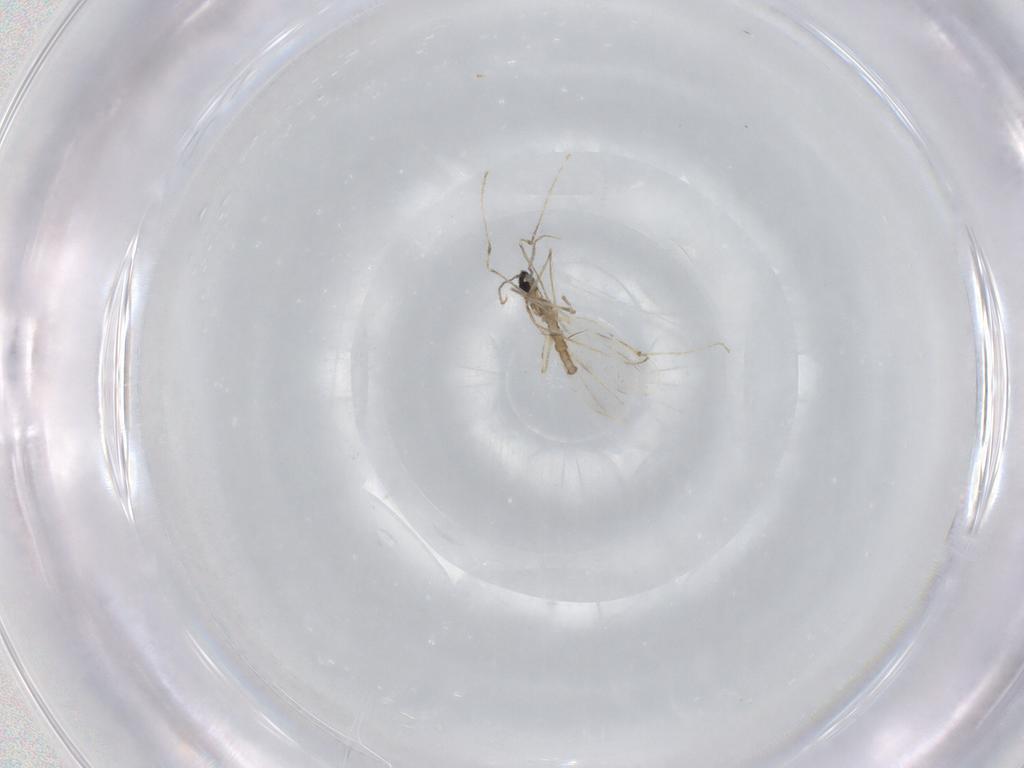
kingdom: Animalia
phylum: Arthropoda
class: Insecta
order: Diptera
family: Cecidomyiidae
